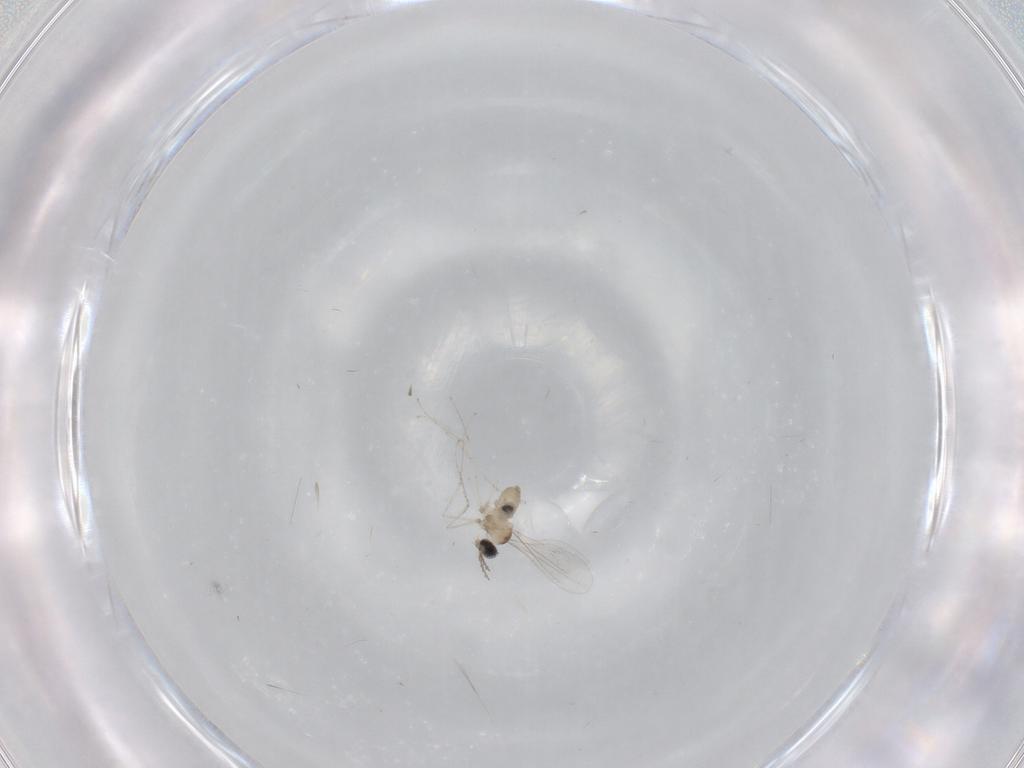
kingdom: Animalia
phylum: Arthropoda
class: Insecta
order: Diptera
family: Cecidomyiidae
